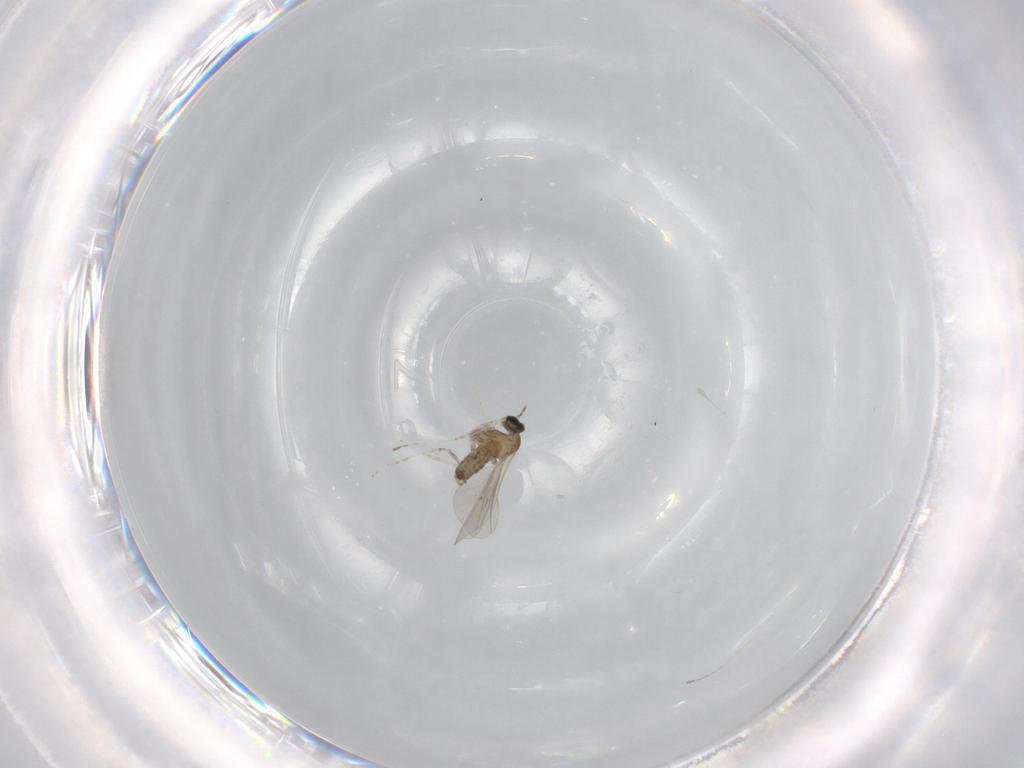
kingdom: Animalia
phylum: Arthropoda
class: Insecta
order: Diptera
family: Cecidomyiidae
